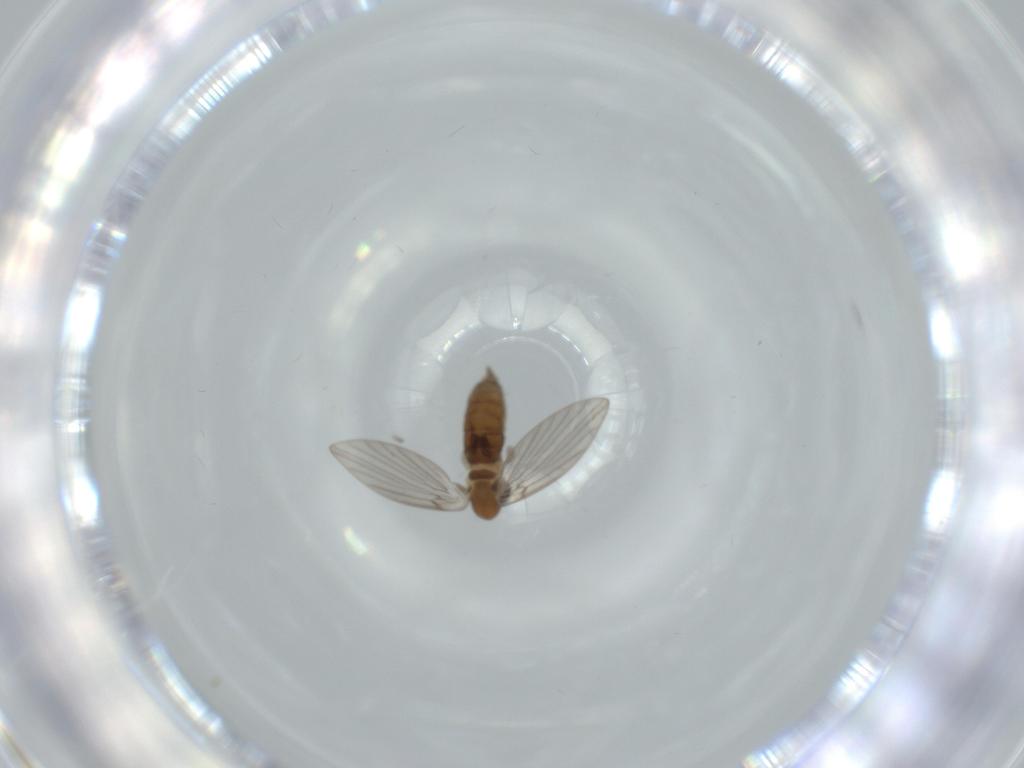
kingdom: Animalia
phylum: Arthropoda
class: Insecta
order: Diptera
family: Psychodidae
